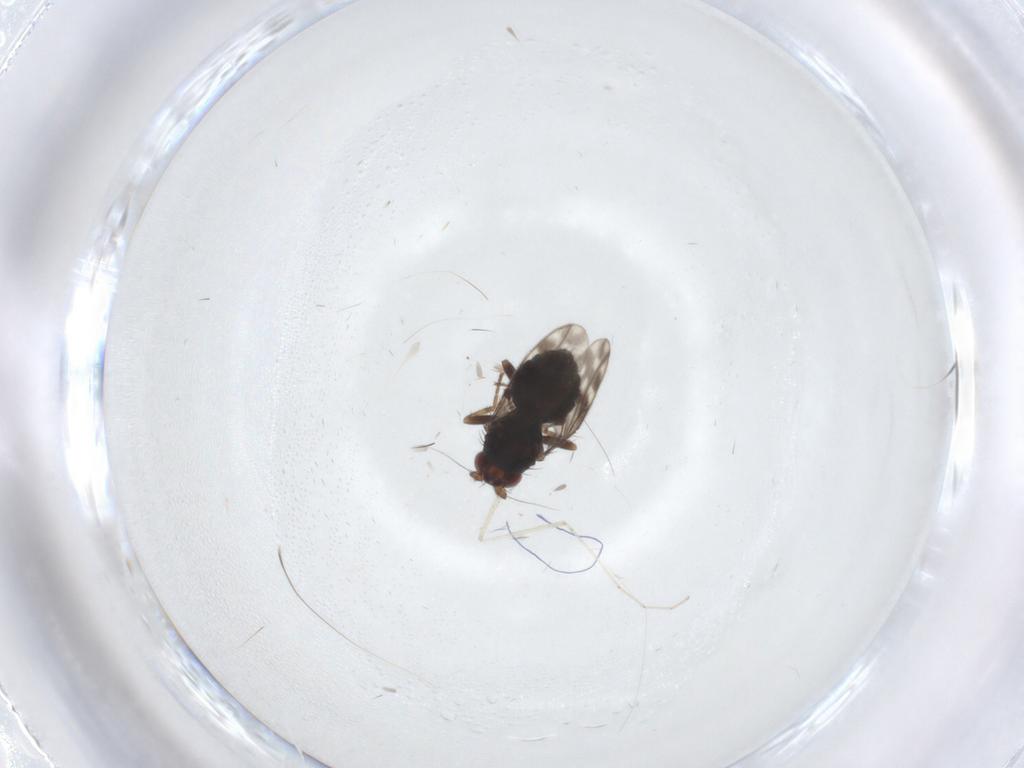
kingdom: Animalia
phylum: Arthropoda
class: Insecta
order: Diptera
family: Sphaeroceridae
